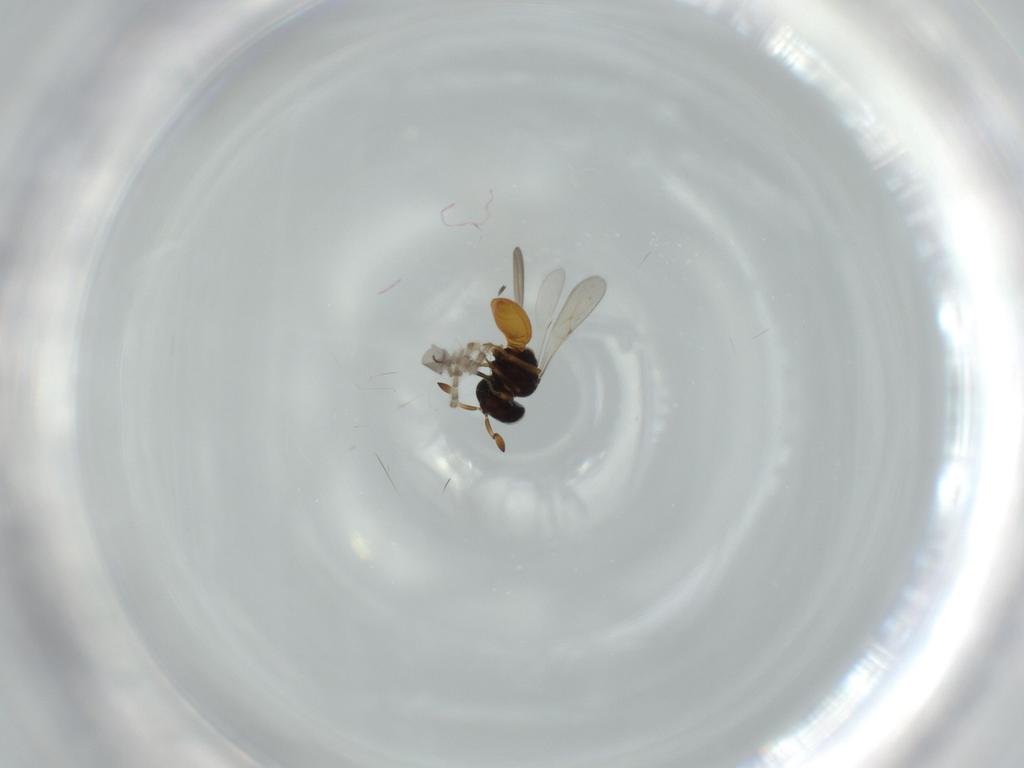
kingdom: Animalia
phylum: Arthropoda
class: Insecta
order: Hymenoptera
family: Scelionidae
